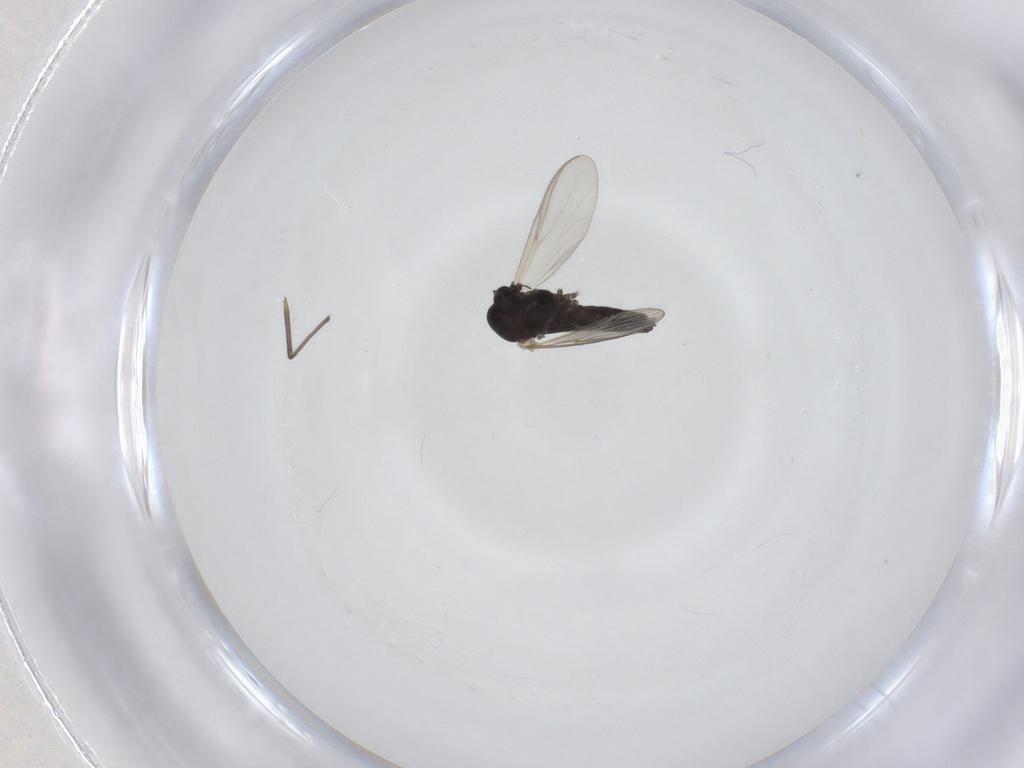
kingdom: Animalia
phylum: Arthropoda
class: Insecta
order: Diptera
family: Chironomidae
